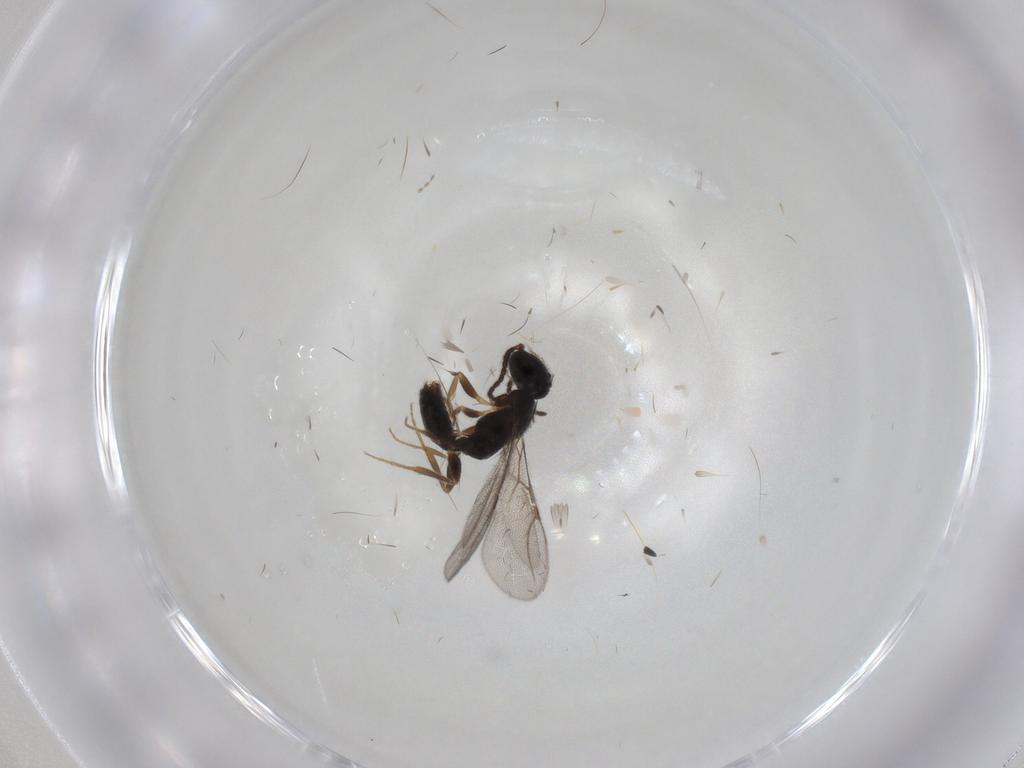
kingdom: Animalia
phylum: Arthropoda
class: Insecta
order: Hymenoptera
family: Bethylidae
